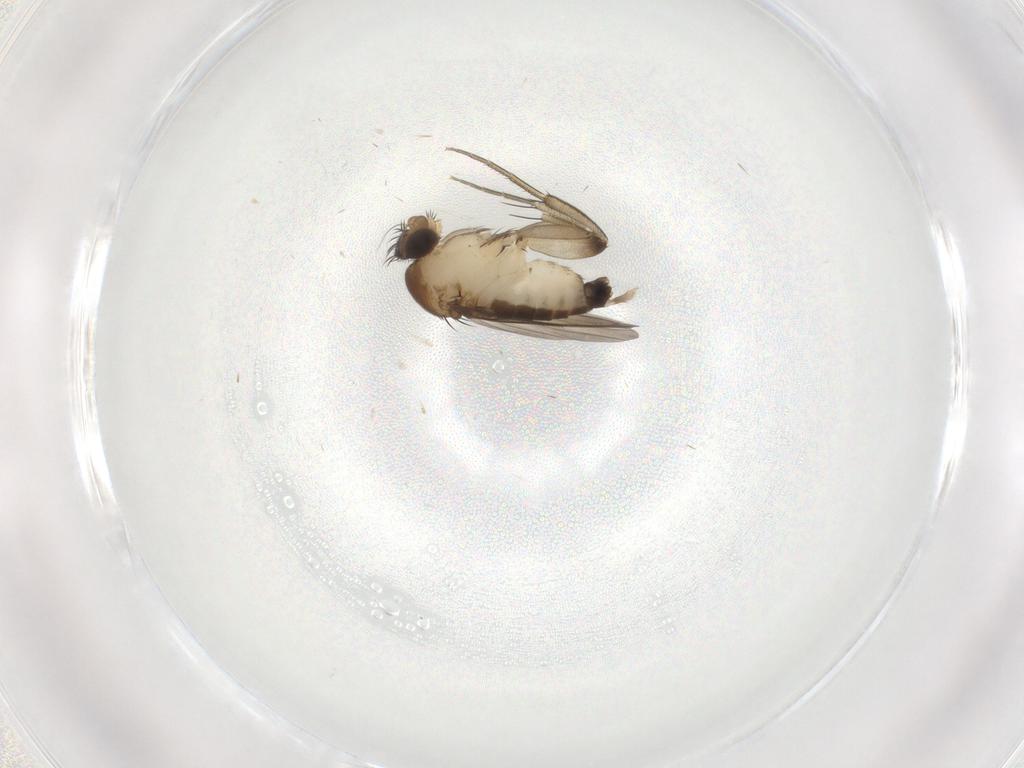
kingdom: Animalia
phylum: Arthropoda
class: Insecta
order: Diptera
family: Phoridae
